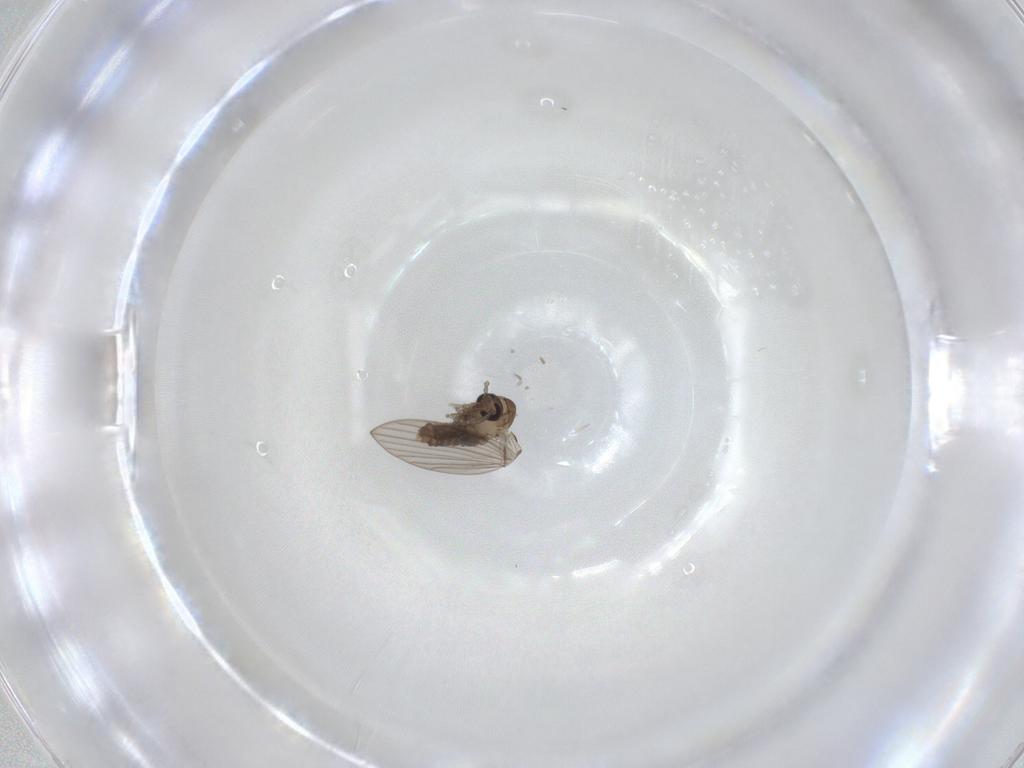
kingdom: Animalia
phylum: Arthropoda
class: Insecta
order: Diptera
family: Psychodidae
